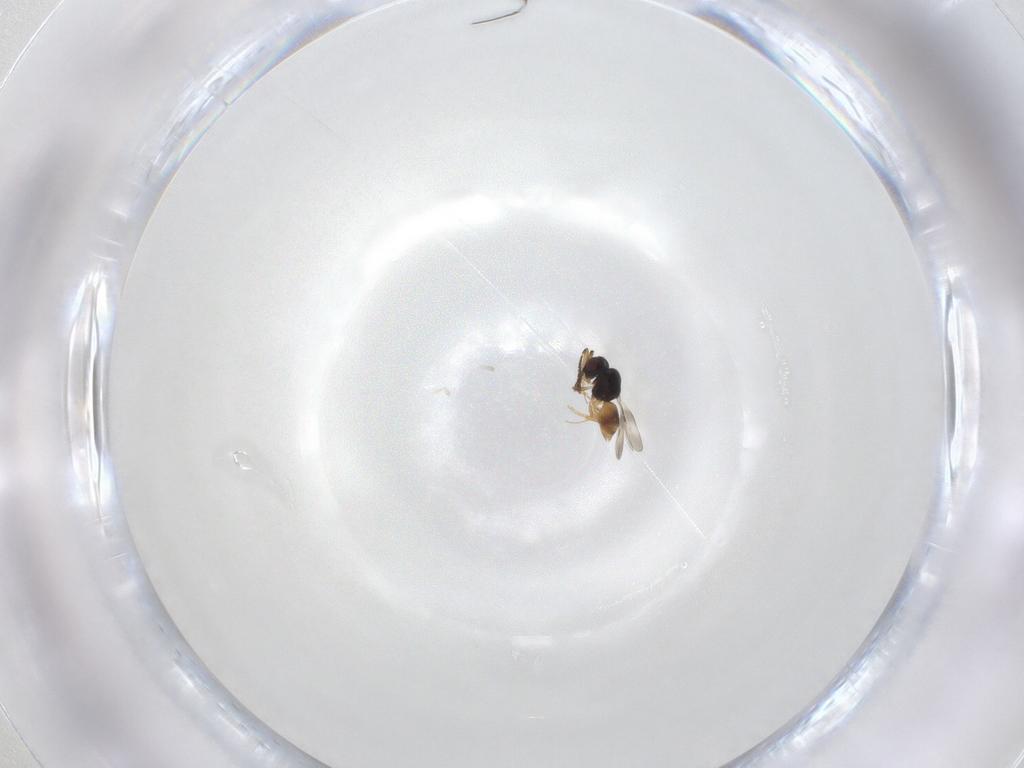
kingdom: Animalia
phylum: Arthropoda
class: Insecta
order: Hymenoptera
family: Ceraphronidae
